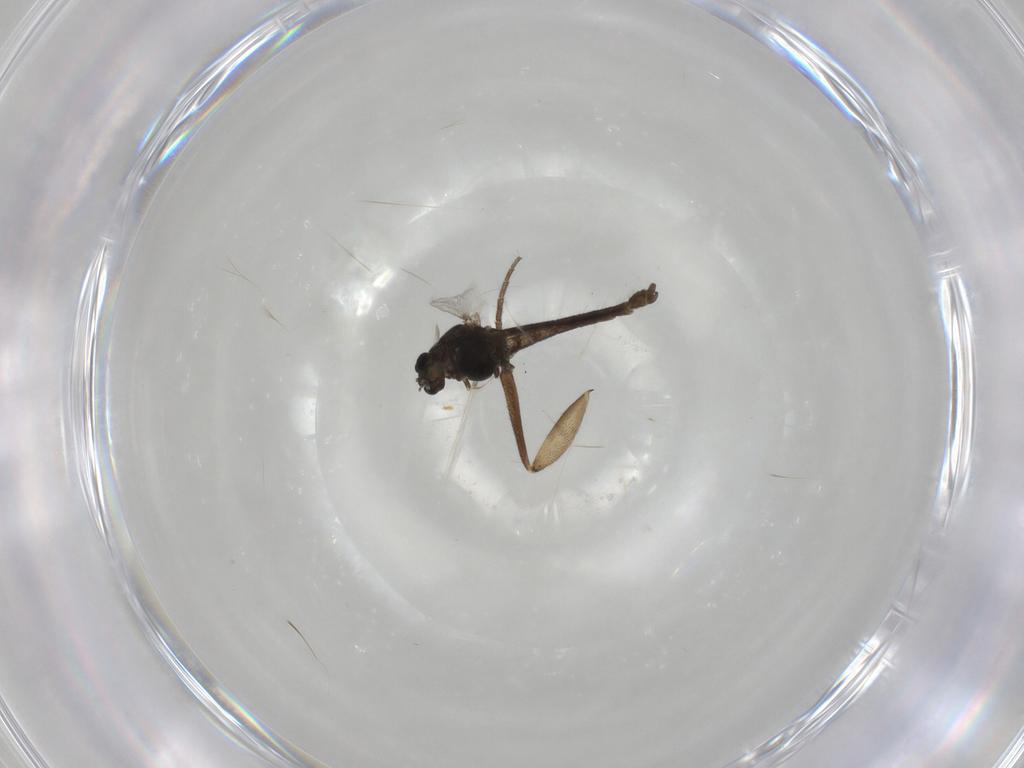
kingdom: Animalia
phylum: Arthropoda
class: Insecta
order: Diptera
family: Chironomidae
